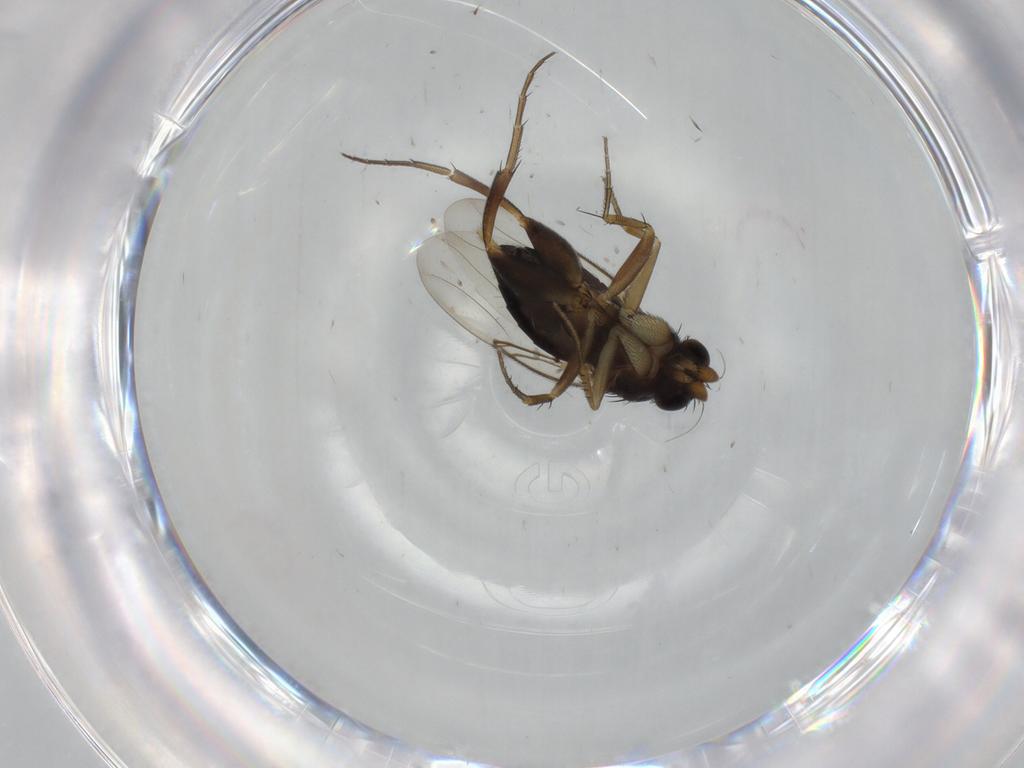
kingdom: Animalia
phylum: Arthropoda
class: Insecta
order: Diptera
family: Phoridae
